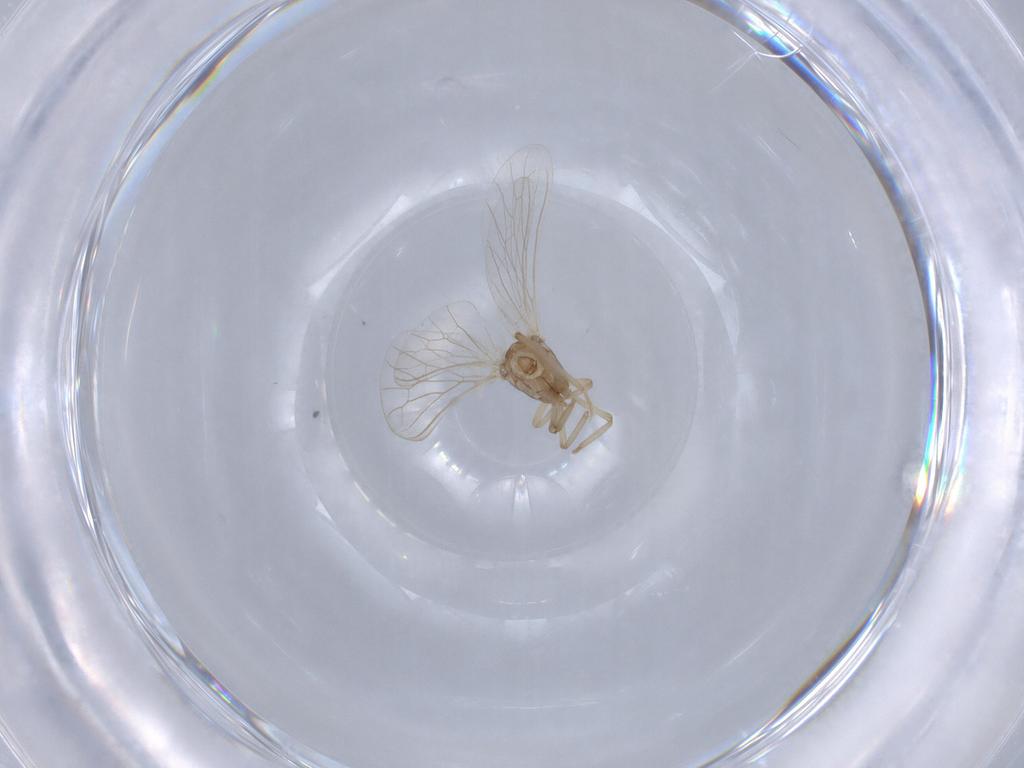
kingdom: Animalia
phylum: Arthropoda
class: Insecta
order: Neuroptera
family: Coniopterygidae
